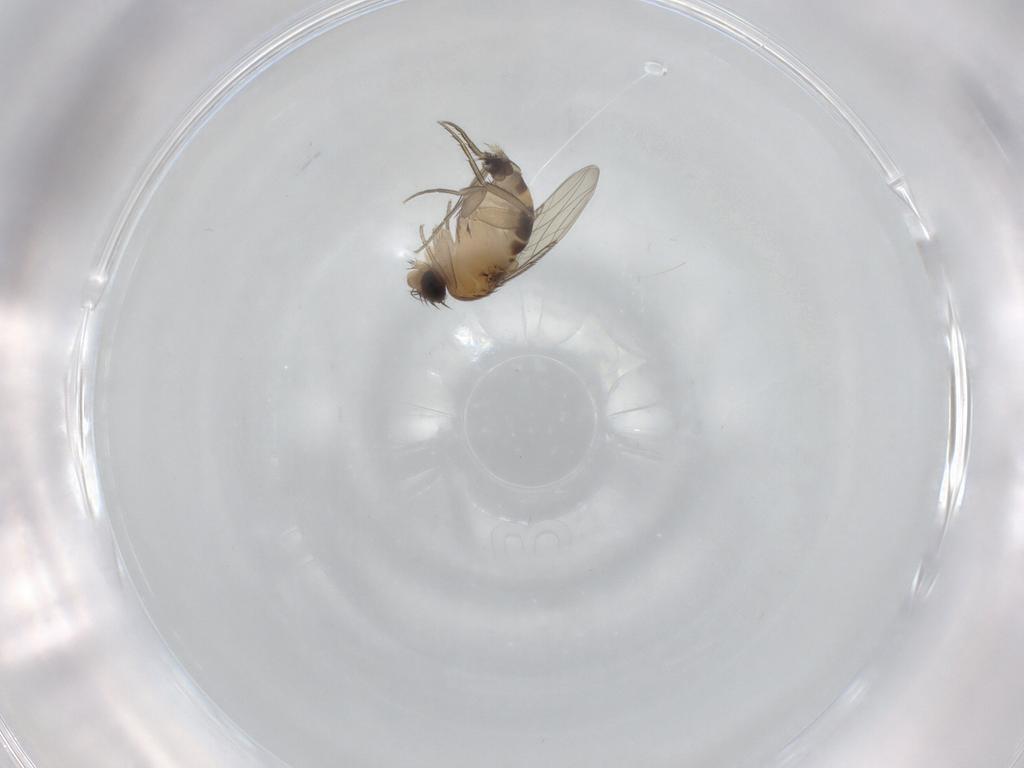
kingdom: Animalia
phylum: Arthropoda
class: Insecta
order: Diptera
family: Phoridae
